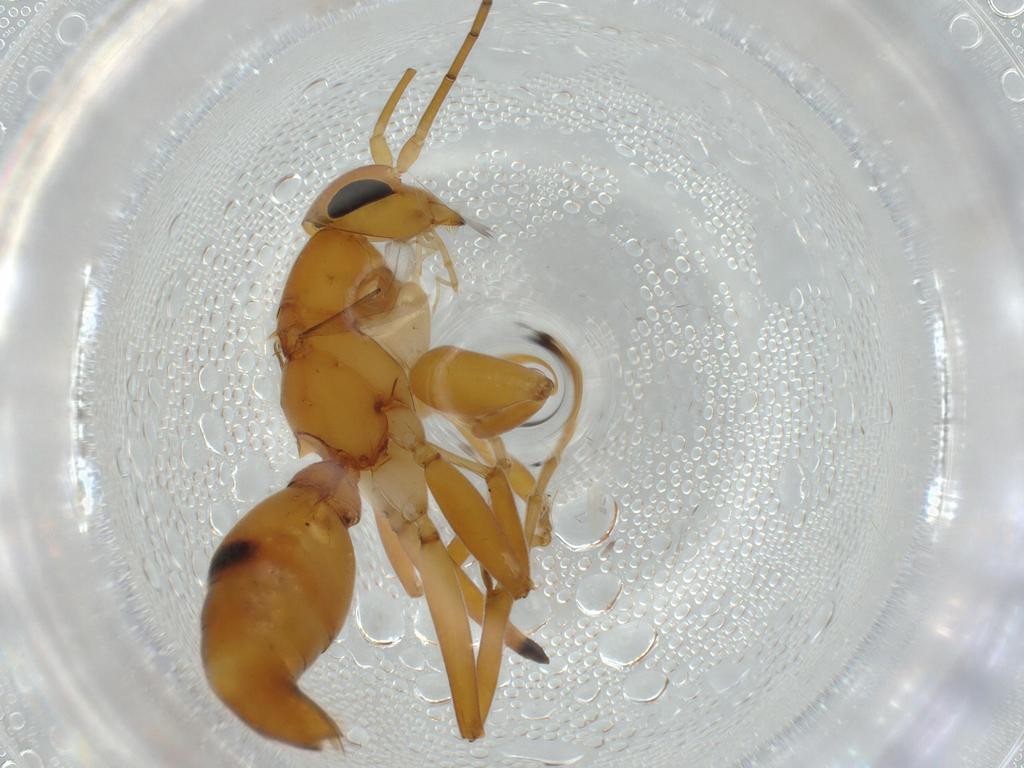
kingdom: Animalia
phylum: Arthropoda
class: Insecta
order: Hymenoptera
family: Rhopalosomatidae
